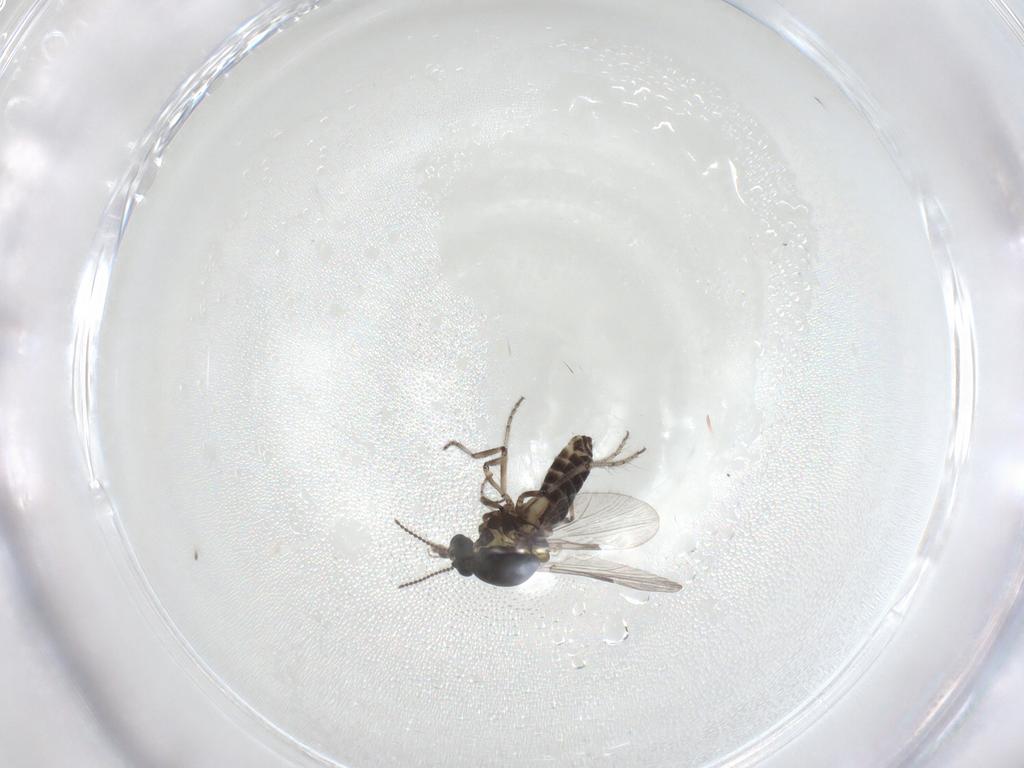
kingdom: Animalia
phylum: Arthropoda
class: Insecta
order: Diptera
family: Ceratopogonidae
